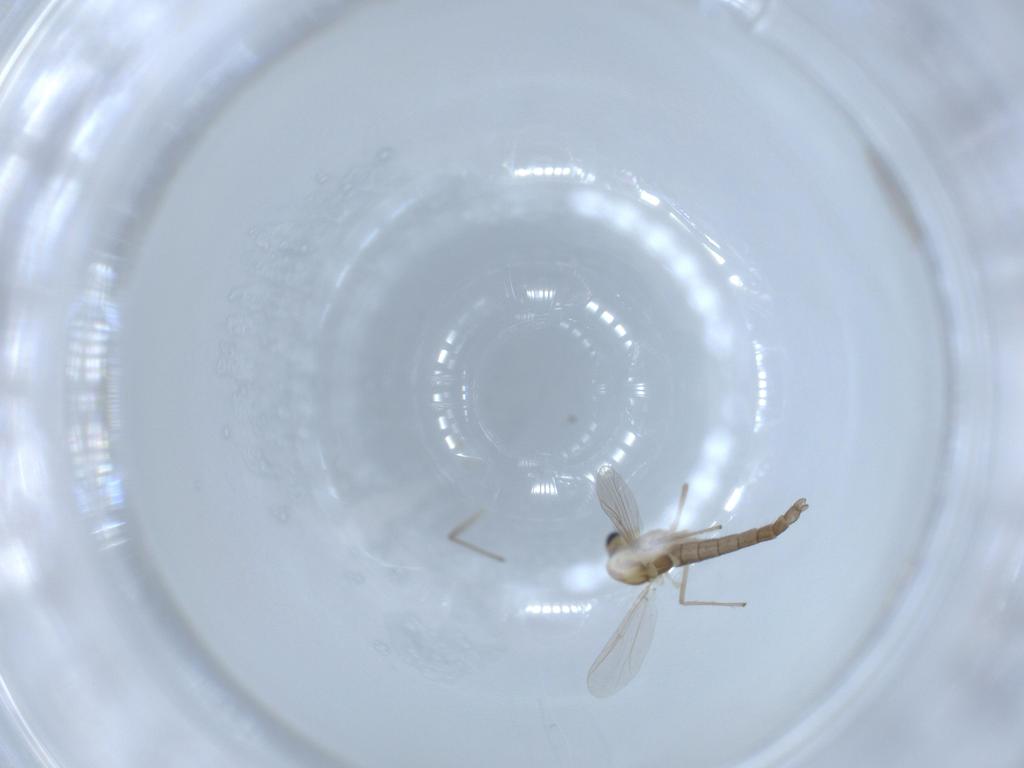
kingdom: Animalia
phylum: Arthropoda
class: Insecta
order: Diptera
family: Chironomidae
